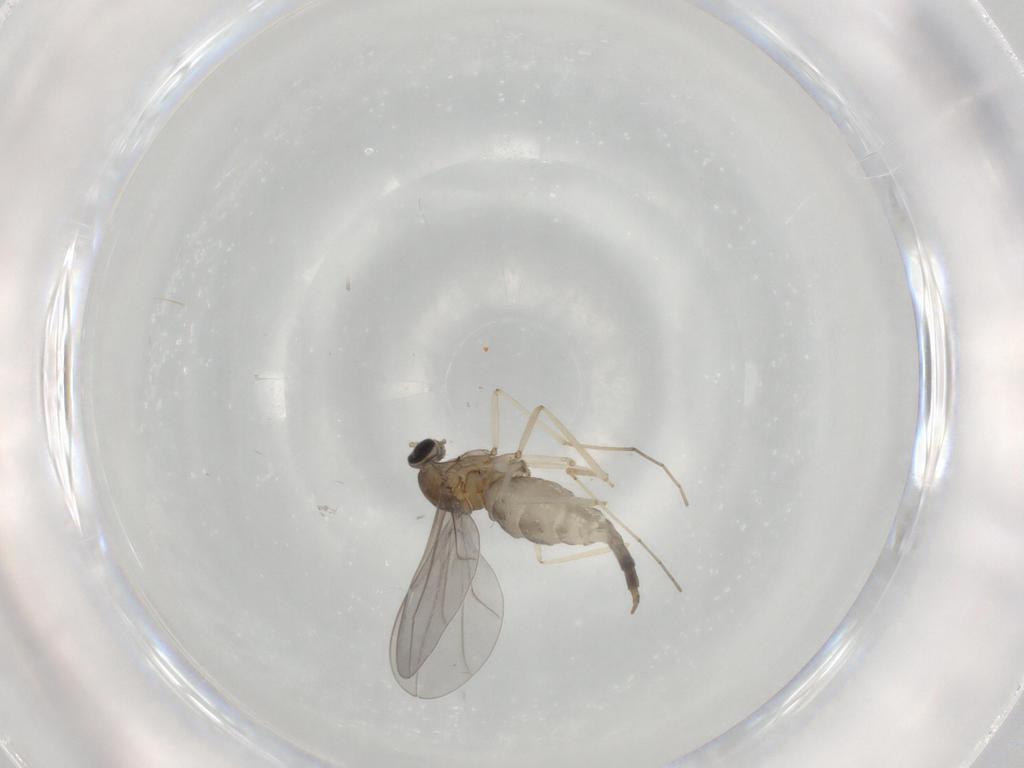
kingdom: Animalia
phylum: Arthropoda
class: Insecta
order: Diptera
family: Cecidomyiidae
